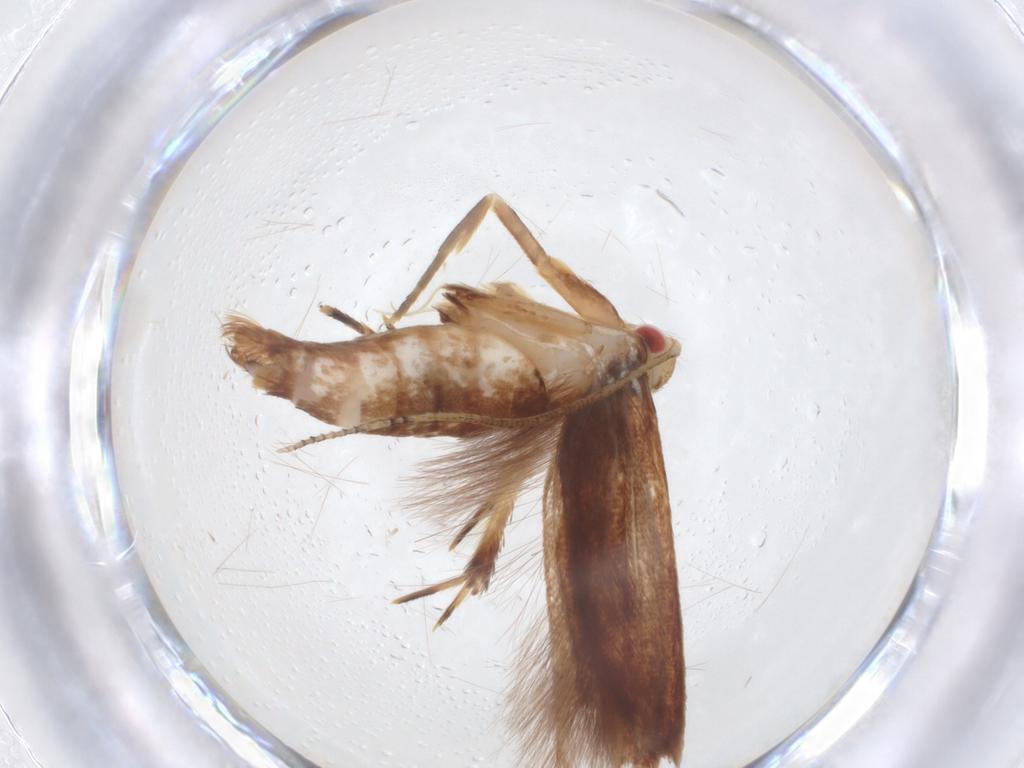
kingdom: Animalia
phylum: Arthropoda
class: Insecta
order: Lepidoptera
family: Cosmopterigidae
